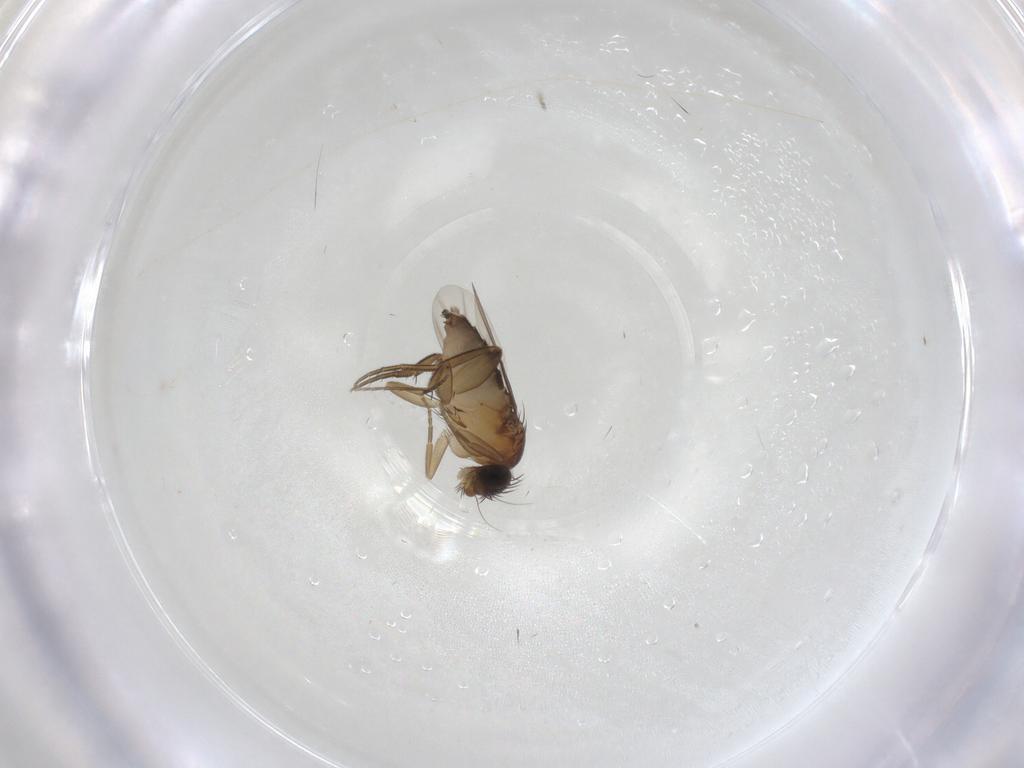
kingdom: Animalia
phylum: Arthropoda
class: Insecta
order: Diptera
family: Phoridae
